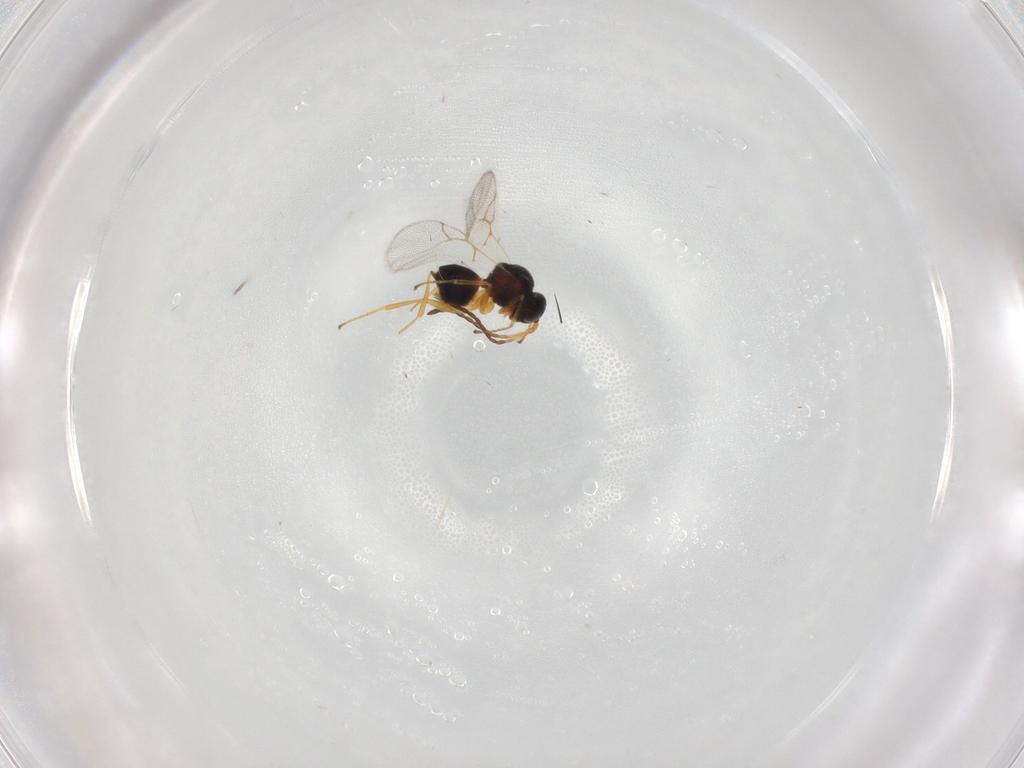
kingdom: Animalia
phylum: Arthropoda
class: Insecta
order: Hymenoptera
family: Figitidae
